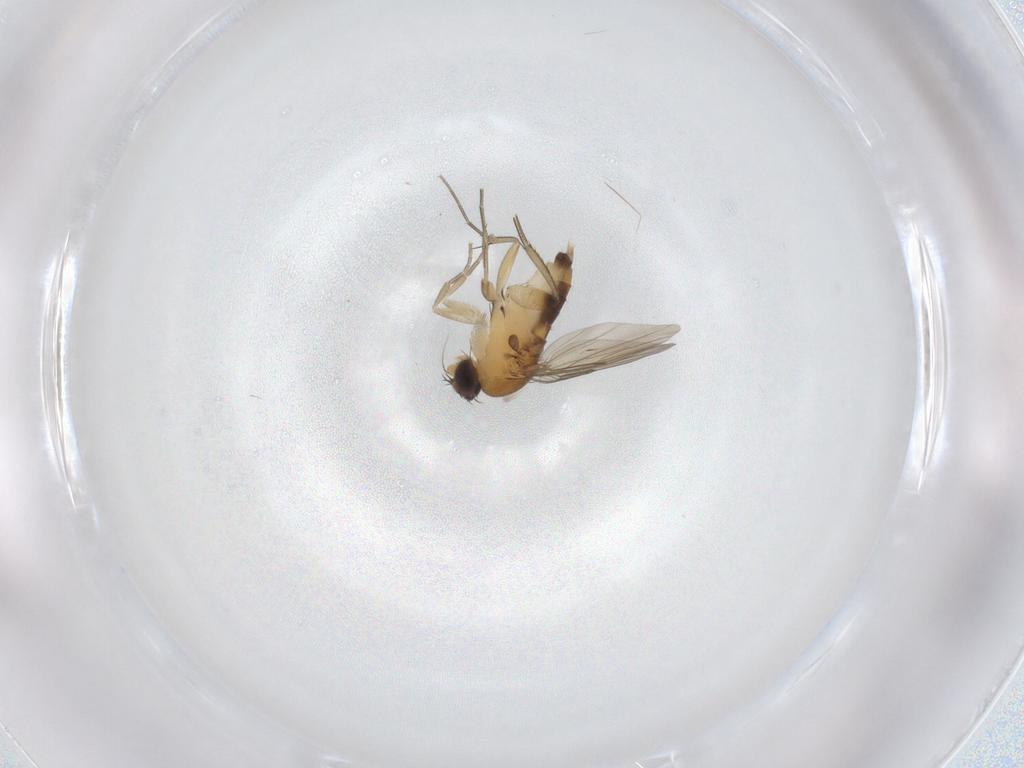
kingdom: Animalia
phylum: Arthropoda
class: Insecta
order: Diptera
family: Phoridae
